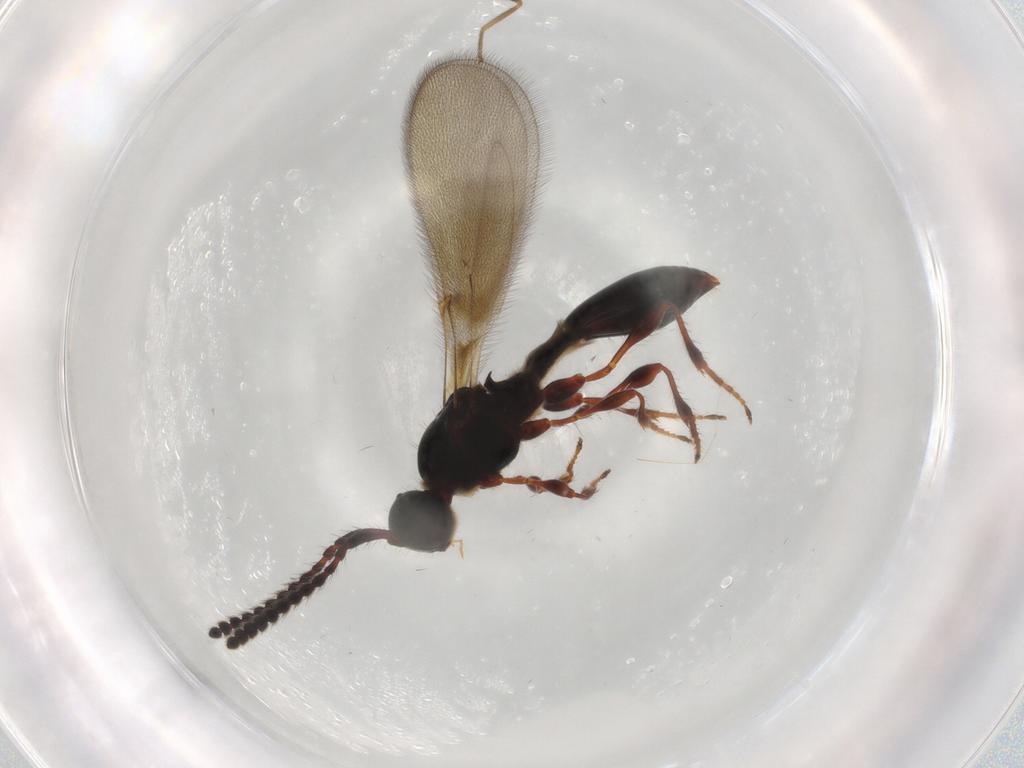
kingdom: Animalia
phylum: Arthropoda
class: Insecta
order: Hymenoptera
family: Diapriidae
